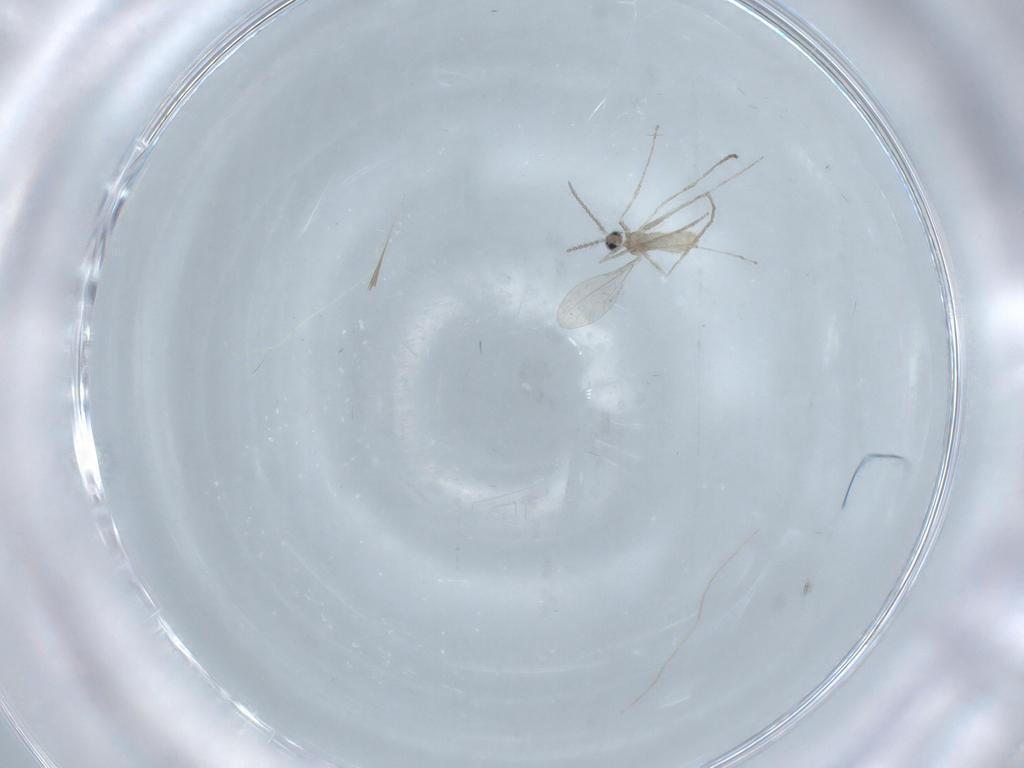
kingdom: Animalia
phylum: Arthropoda
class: Insecta
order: Diptera
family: Cecidomyiidae
